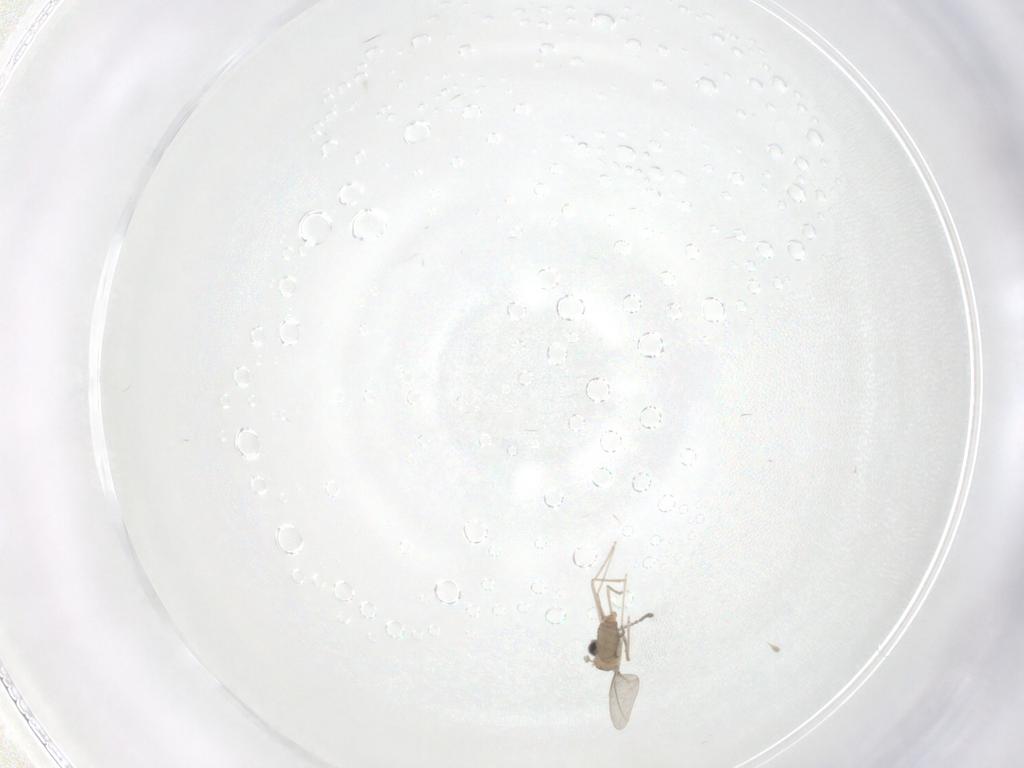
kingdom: Animalia
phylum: Arthropoda
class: Insecta
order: Diptera
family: Cecidomyiidae
